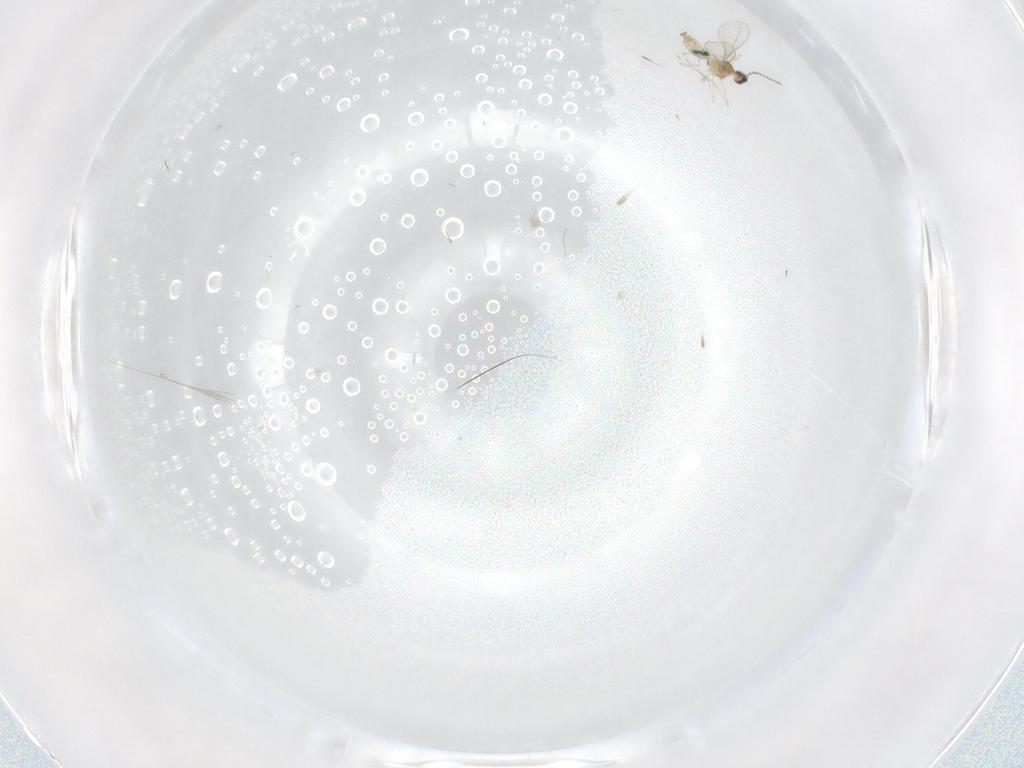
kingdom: Animalia
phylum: Arthropoda
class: Insecta
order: Diptera
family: Cecidomyiidae
